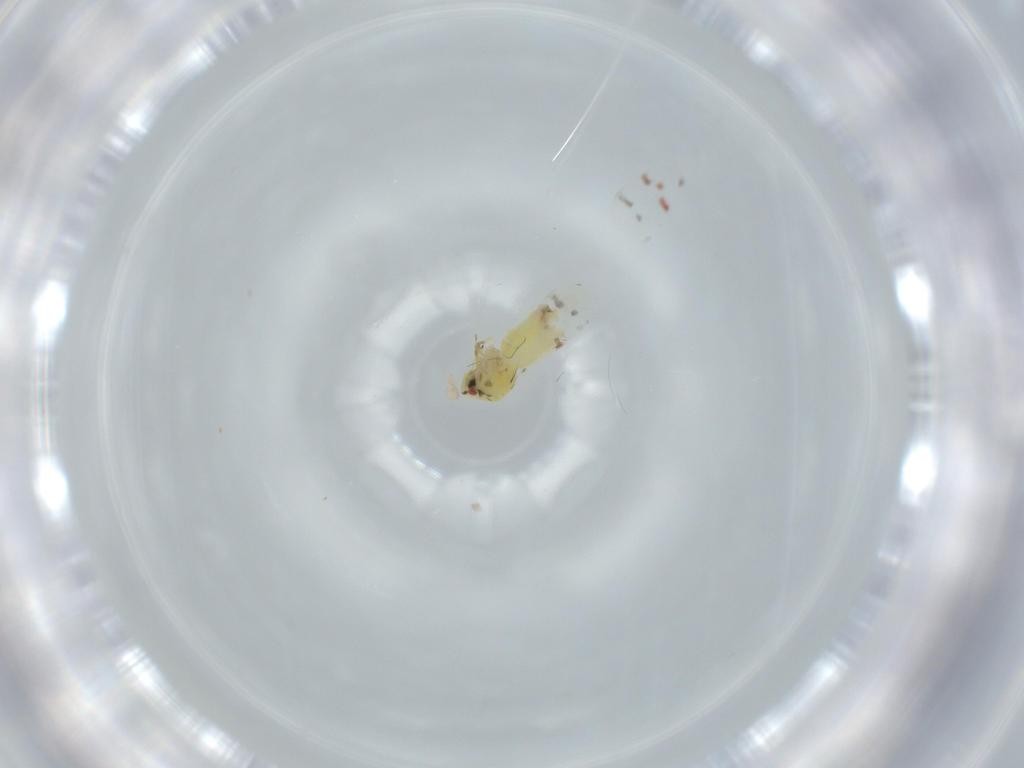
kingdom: Animalia
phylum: Arthropoda
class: Insecta
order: Hemiptera
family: Aleyrodidae
